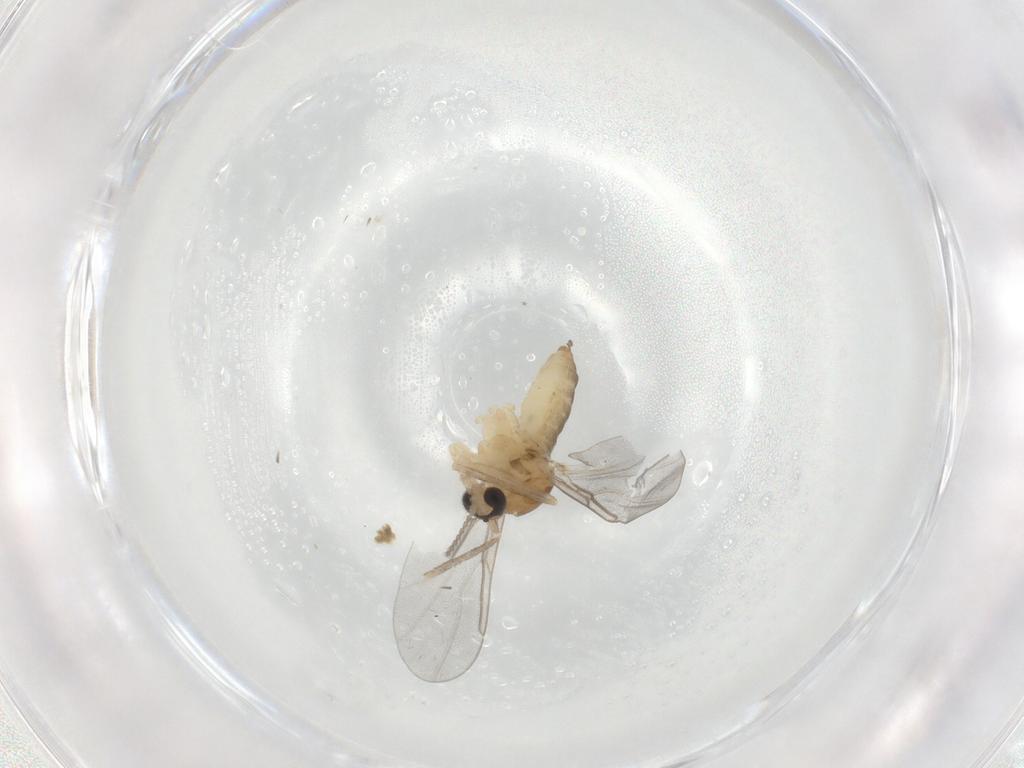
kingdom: Animalia
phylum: Arthropoda
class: Insecta
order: Diptera
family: Cecidomyiidae
